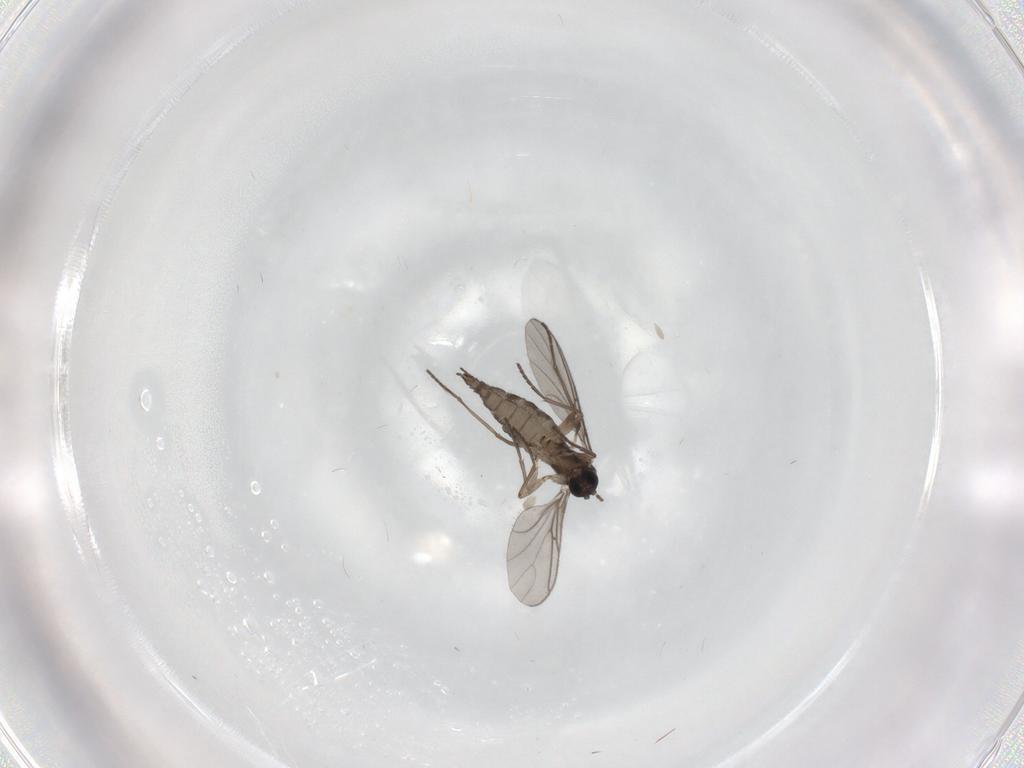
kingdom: Animalia
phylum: Arthropoda
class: Insecta
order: Diptera
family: Sciaridae
